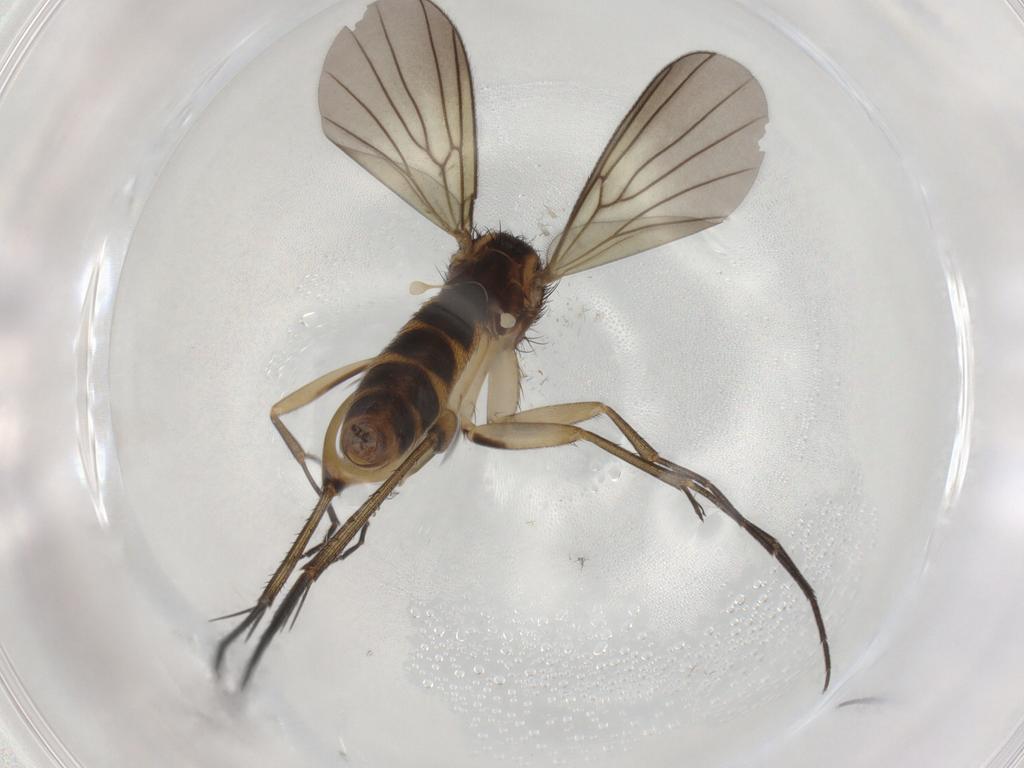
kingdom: Animalia
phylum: Arthropoda
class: Insecta
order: Diptera
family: Mycetophilidae
